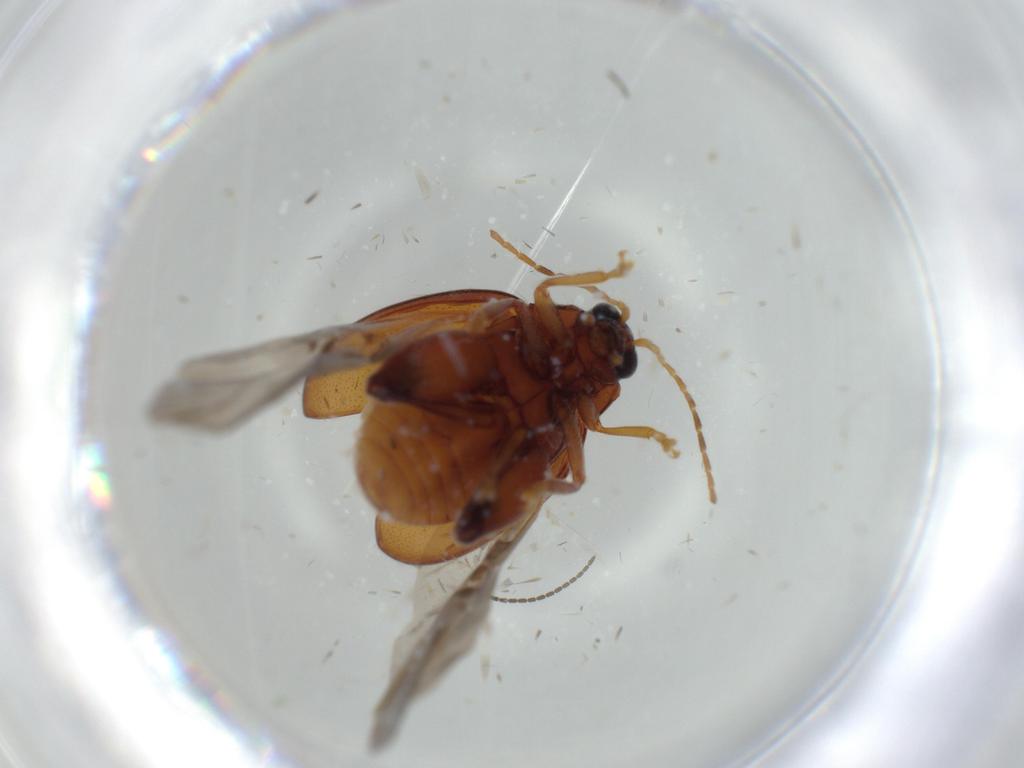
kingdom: Animalia
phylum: Arthropoda
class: Insecta
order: Coleoptera
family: Chrysomelidae
